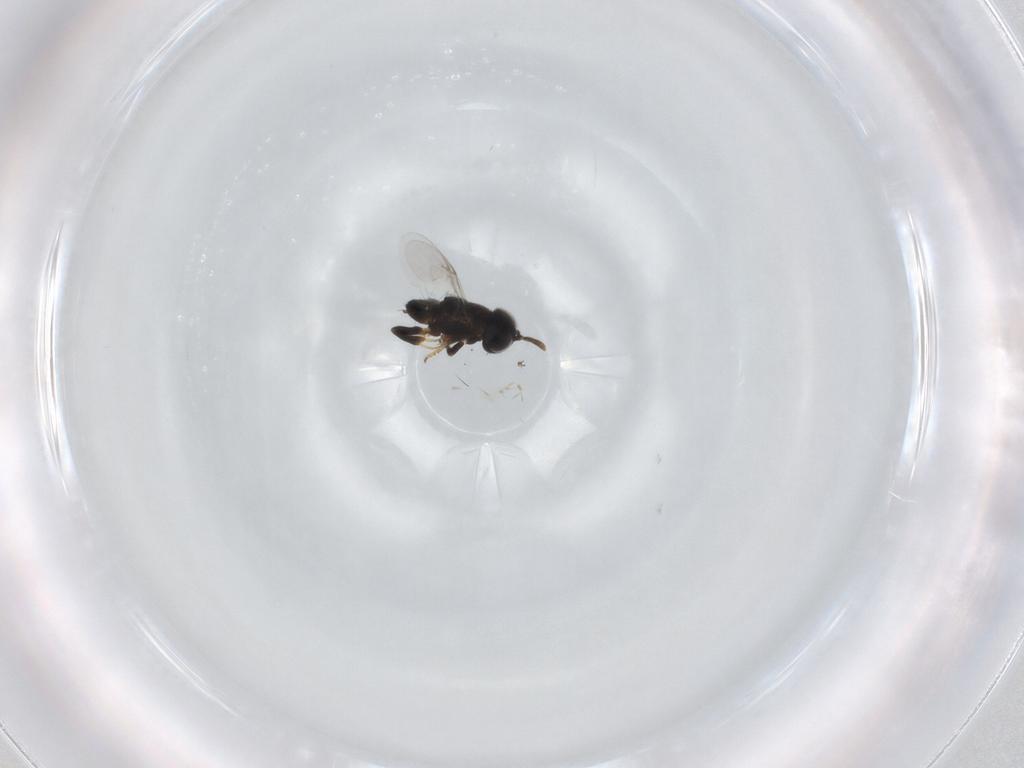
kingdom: Animalia
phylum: Arthropoda
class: Insecta
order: Hymenoptera
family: Encyrtidae
